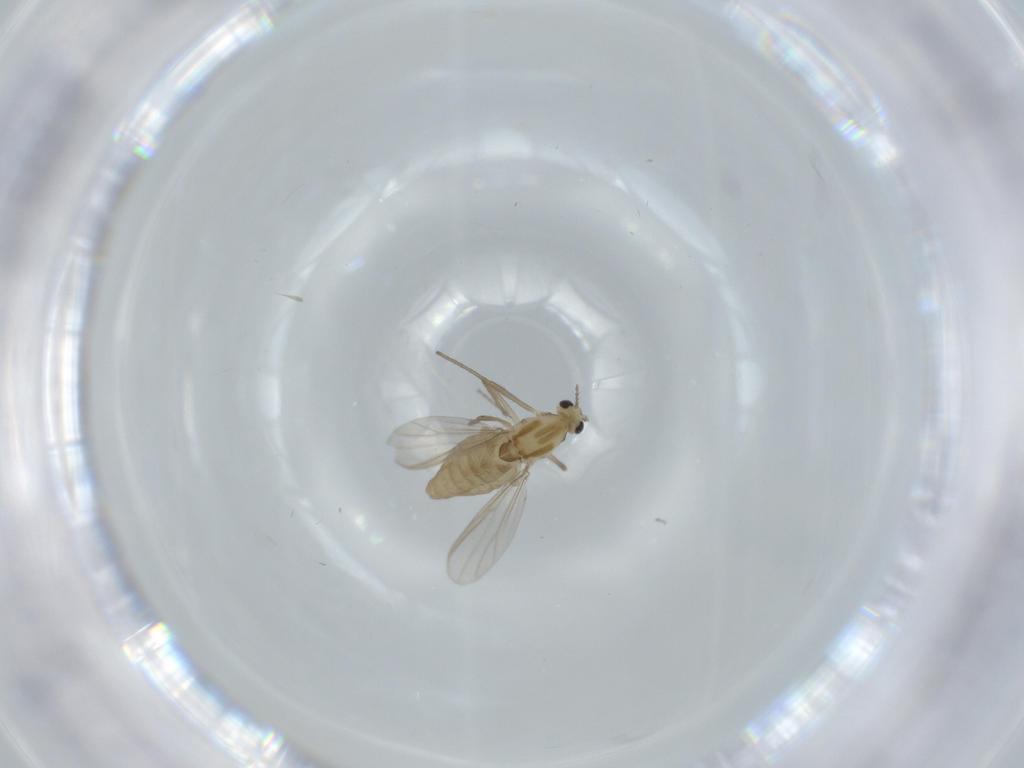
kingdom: Animalia
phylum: Arthropoda
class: Insecta
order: Diptera
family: Chironomidae
